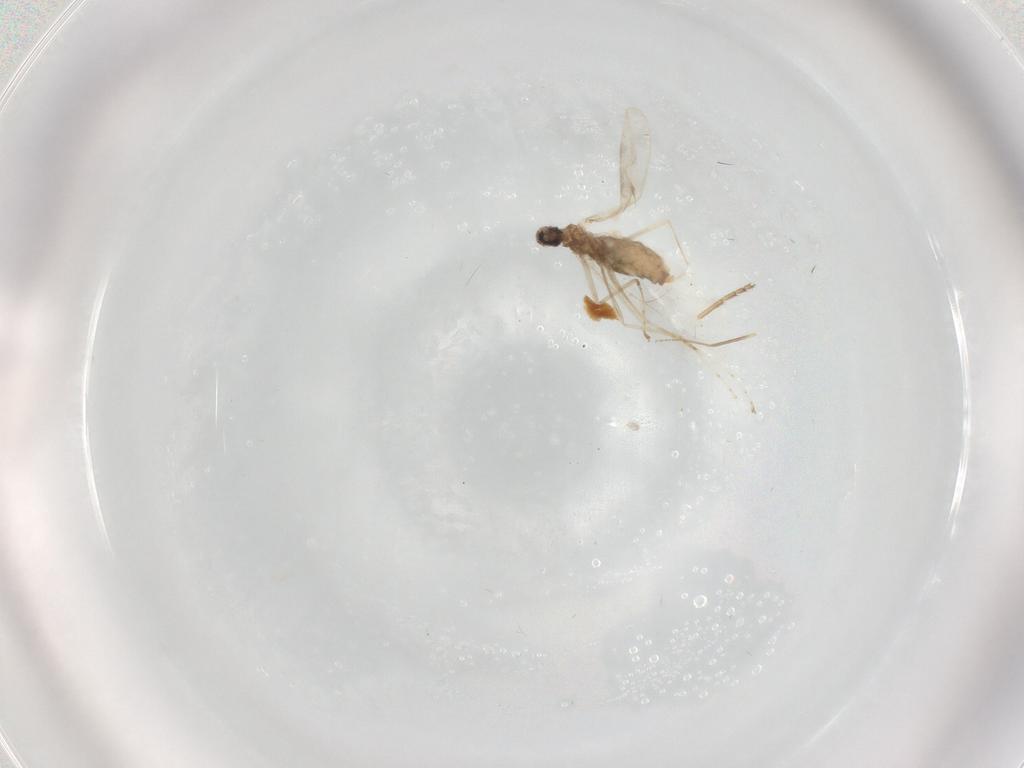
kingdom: Animalia
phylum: Arthropoda
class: Insecta
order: Diptera
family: Cecidomyiidae
